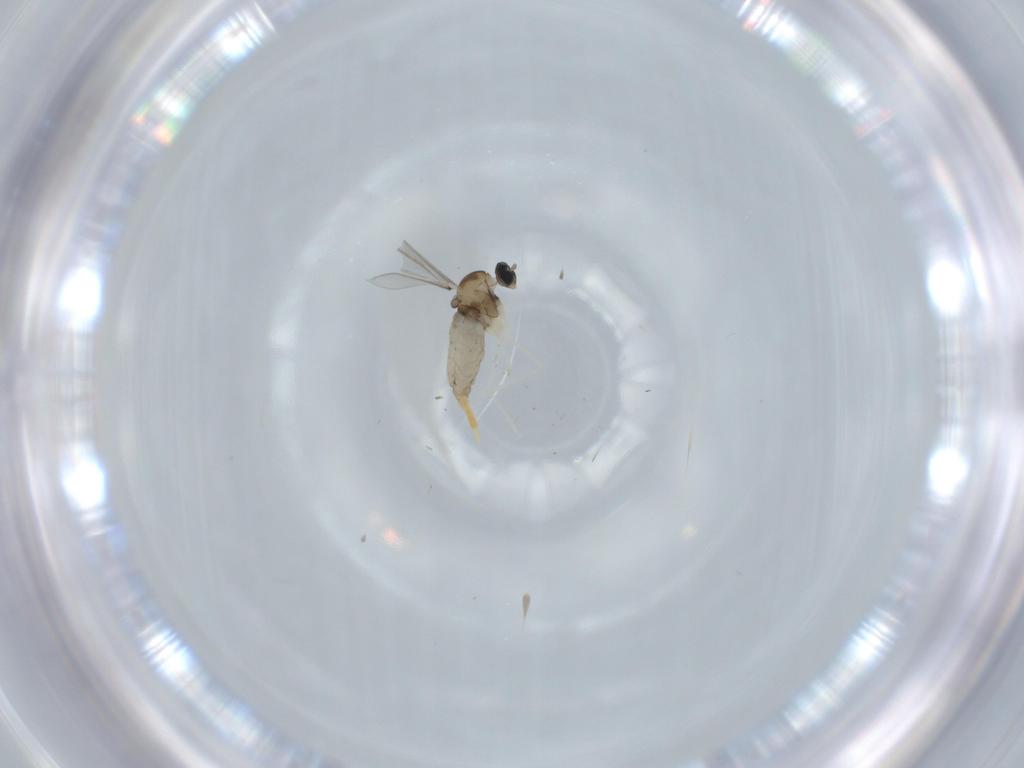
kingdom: Animalia
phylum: Arthropoda
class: Insecta
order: Diptera
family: Cecidomyiidae
